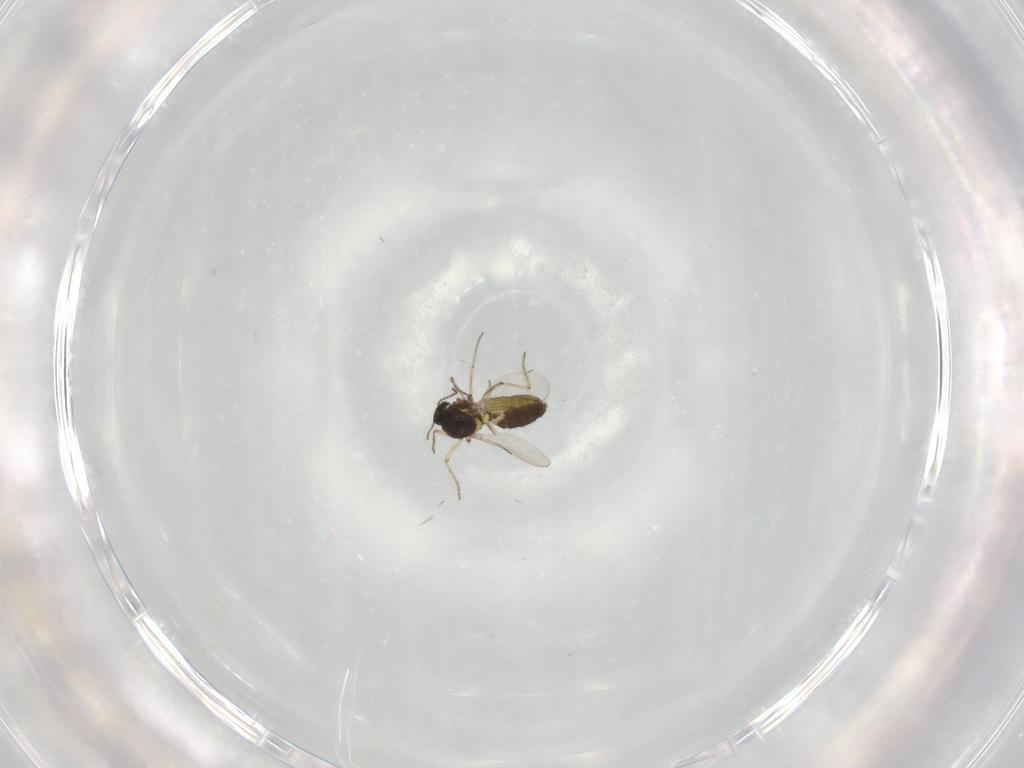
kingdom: Animalia
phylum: Arthropoda
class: Insecta
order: Diptera
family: Ceratopogonidae
